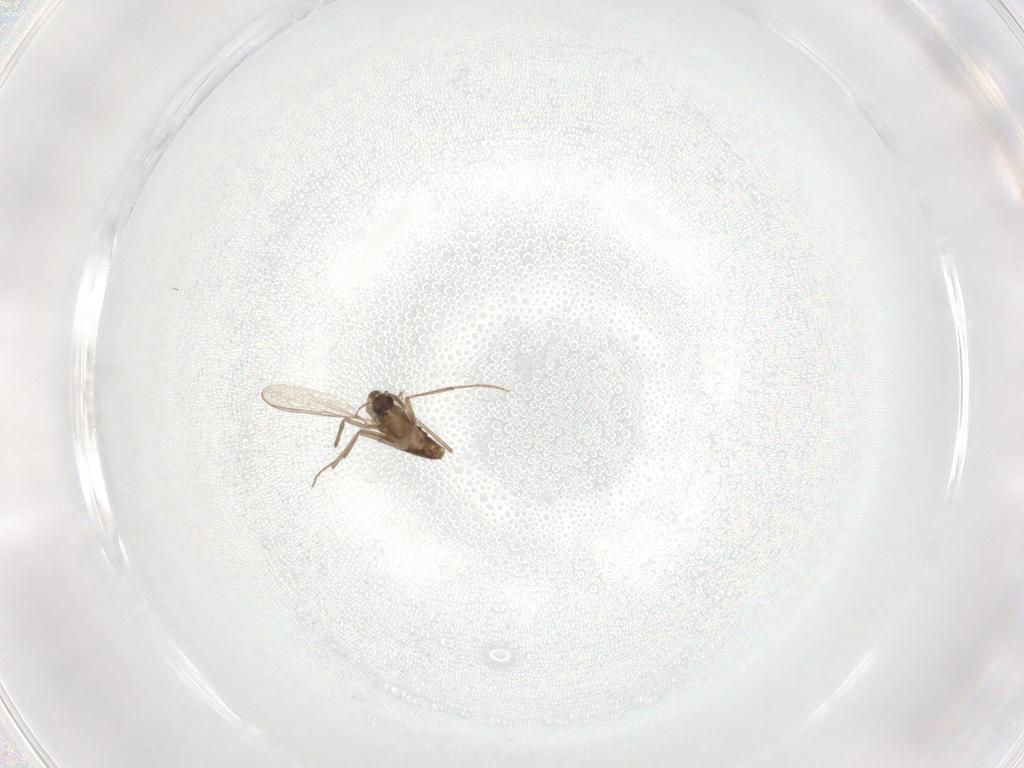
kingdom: Animalia
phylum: Arthropoda
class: Insecta
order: Diptera
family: Chironomidae
